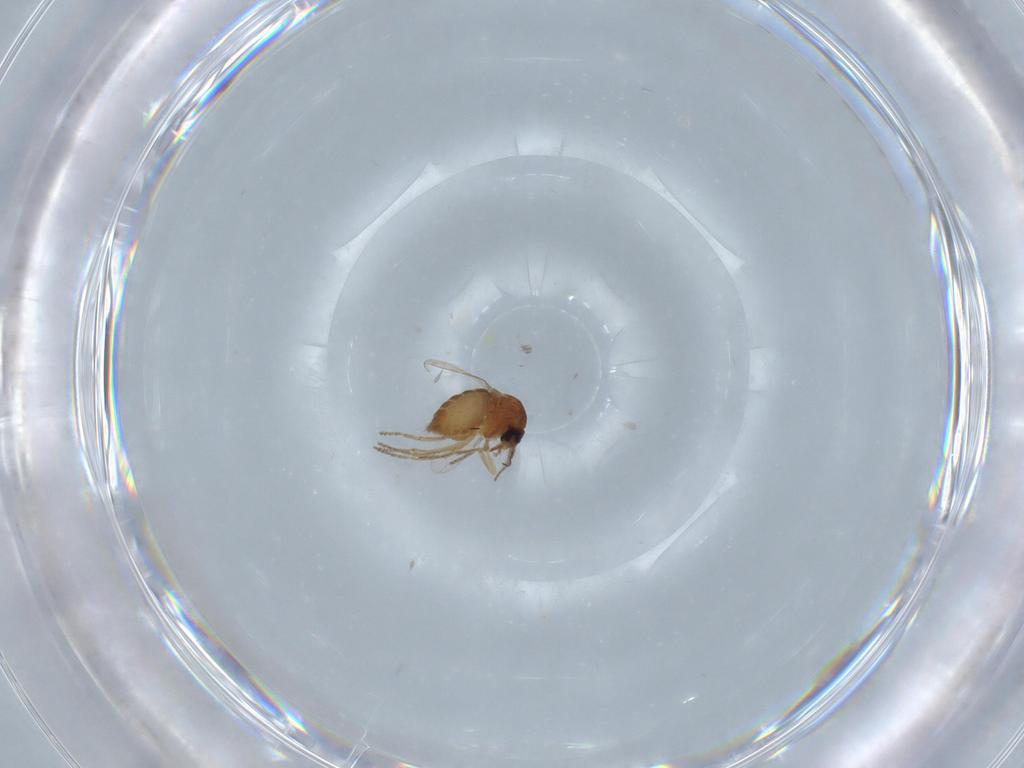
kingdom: Animalia
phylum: Arthropoda
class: Insecta
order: Diptera
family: Ceratopogonidae
